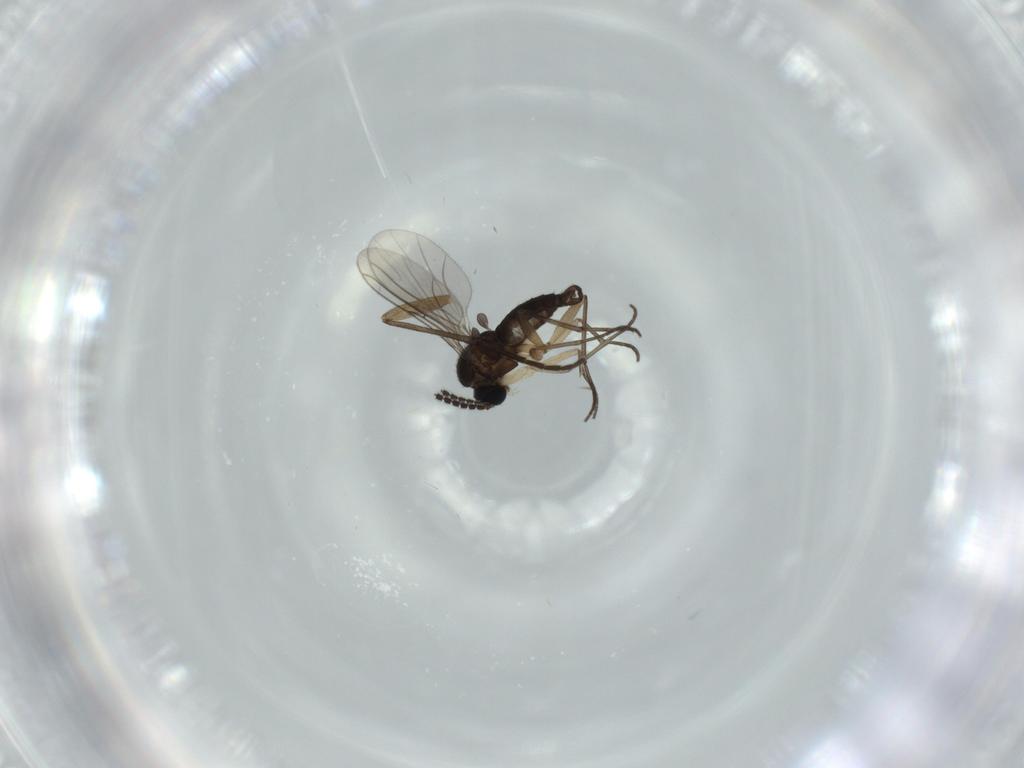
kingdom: Animalia
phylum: Arthropoda
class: Insecta
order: Diptera
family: Sciaridae
